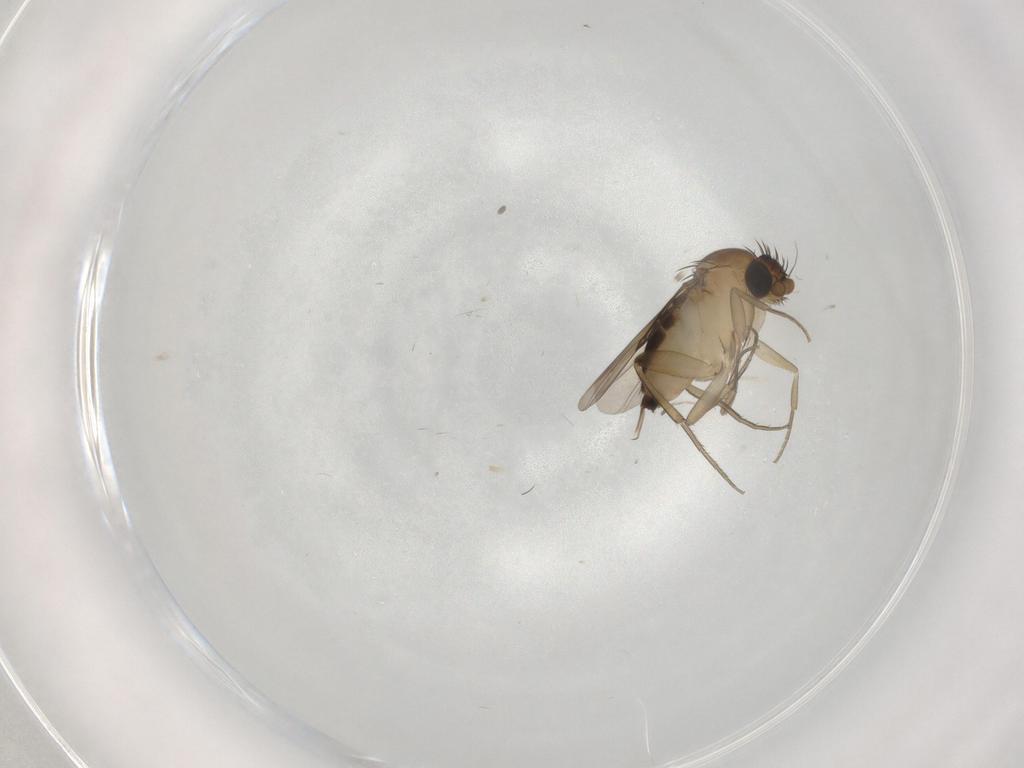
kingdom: Animalia
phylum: Arthropoda
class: Insecta
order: Diptera
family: Phoridae
